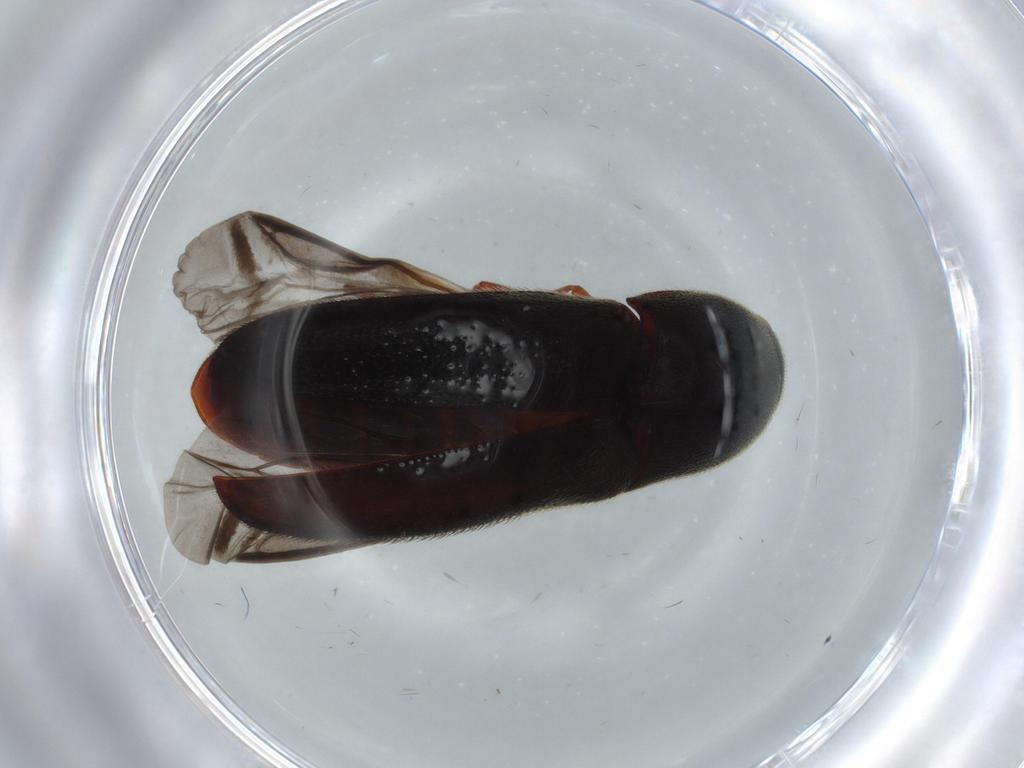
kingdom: Animalia
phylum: Arthropoda
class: Insecta
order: Coleoptera
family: Eucnemidae
